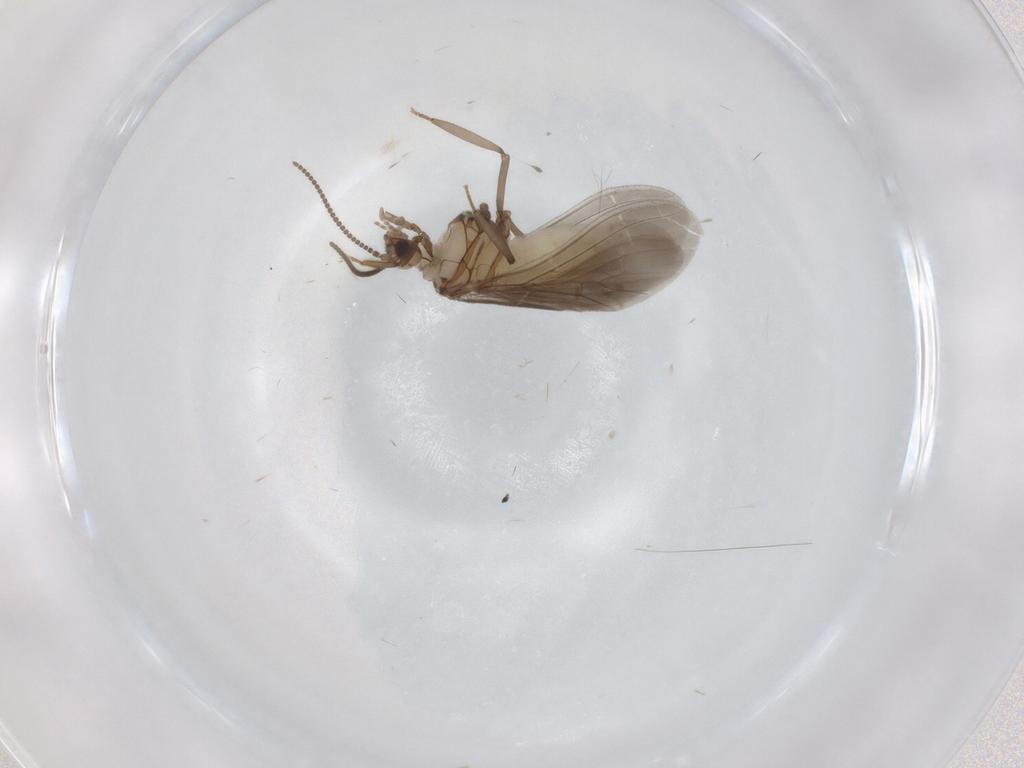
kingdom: Animalia
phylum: Arthropoda
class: Insecta
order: Neuroptera
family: Coniopterygidae
